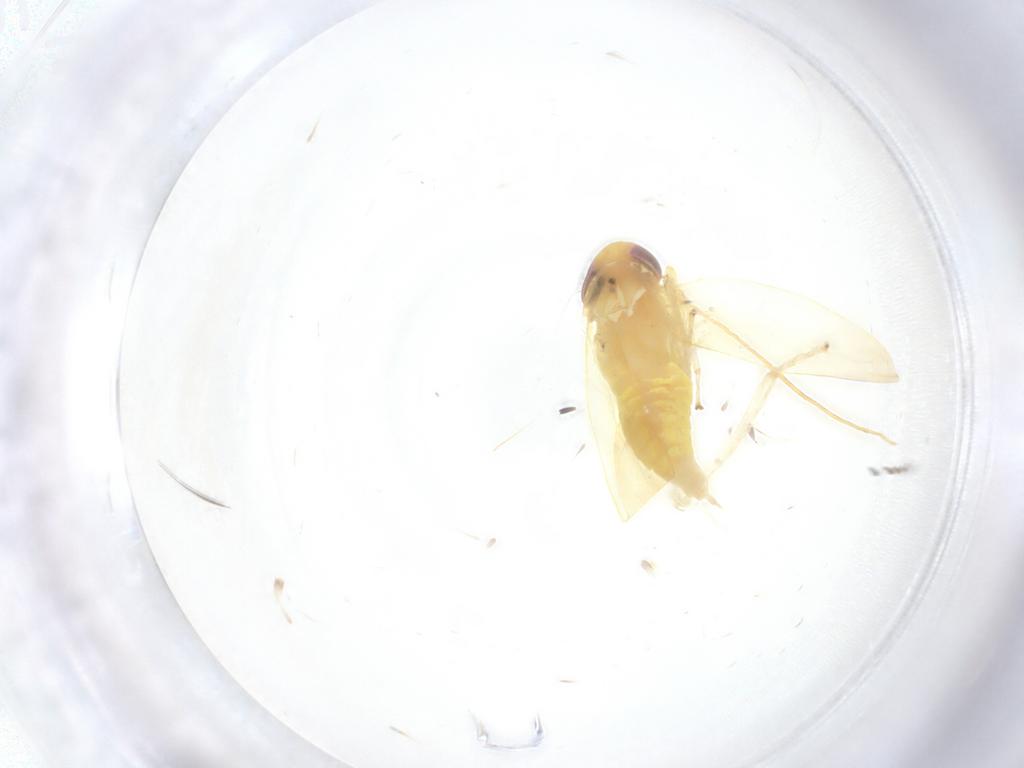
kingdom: Animalia
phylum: Arthropoda
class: Insecta
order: Hemiptera
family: Cicadellidae
